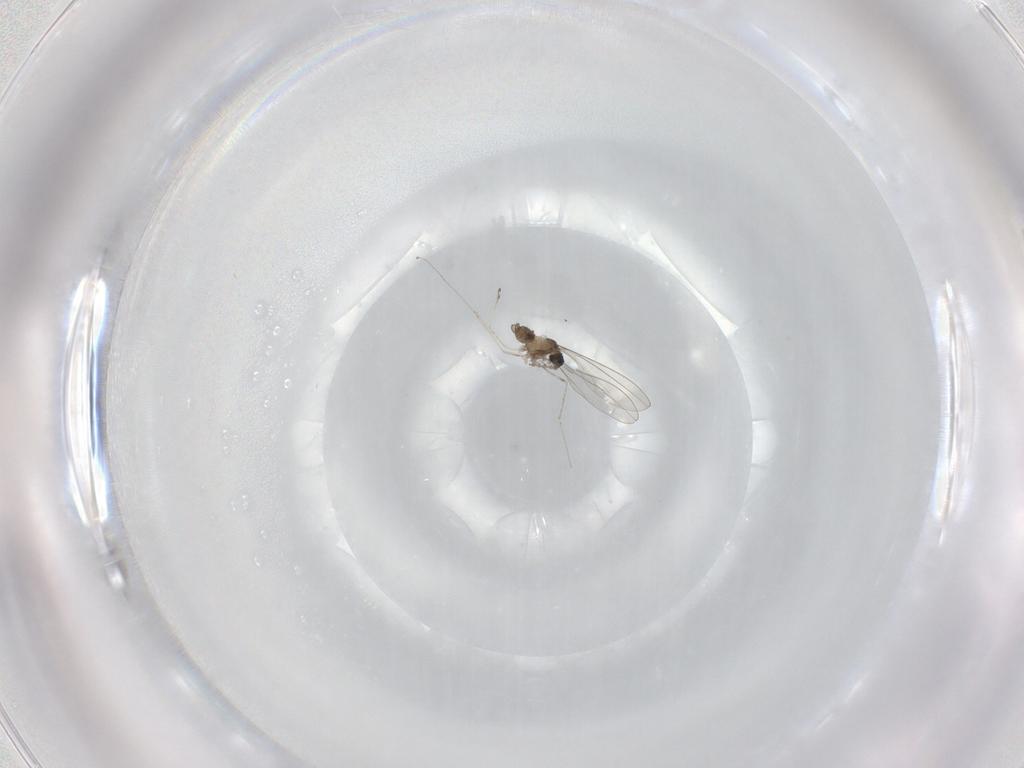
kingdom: Animalia
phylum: Arthropoda
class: Insecta
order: Diptera
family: Cecidomyiidae
